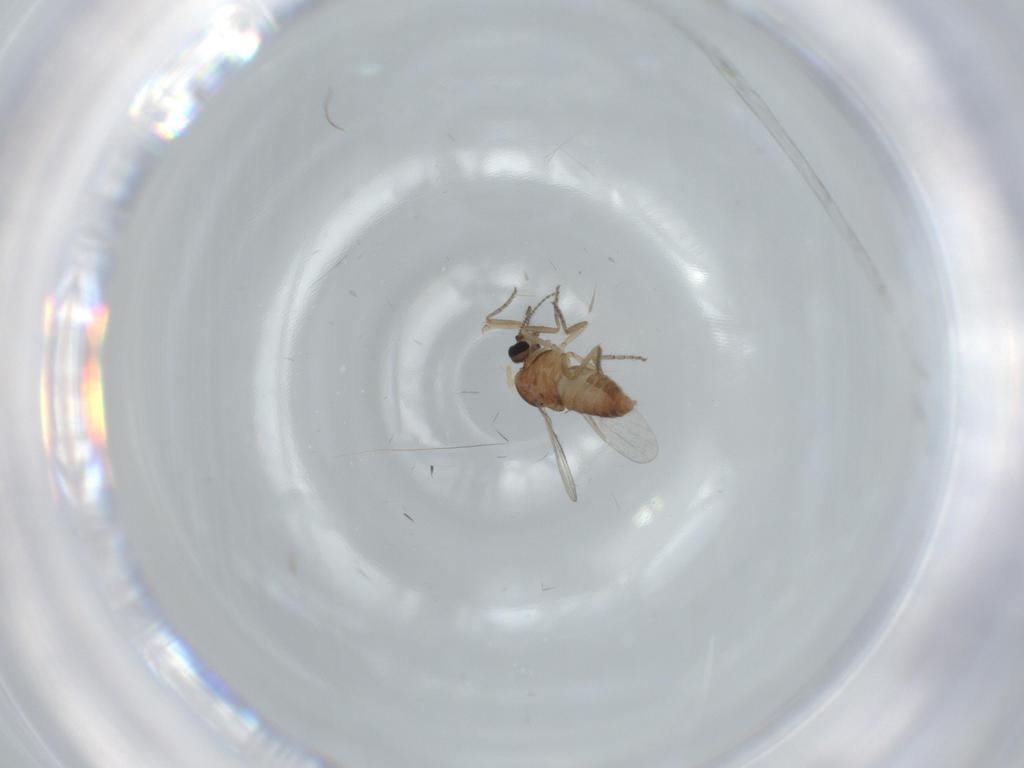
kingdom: Animalia
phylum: Arthropoda
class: Insecta
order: Diptera
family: Ceratopogonidae
